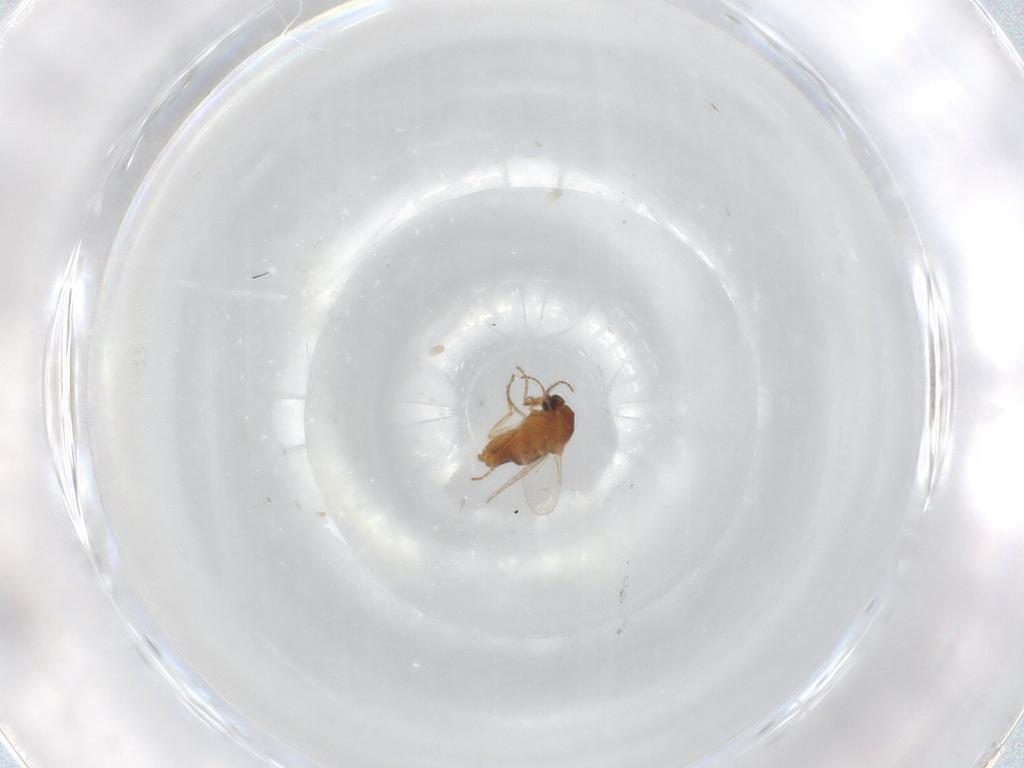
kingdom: Animalia
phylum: Arthropoda
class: Insecta
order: Diptera
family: Ceratopogonidae
